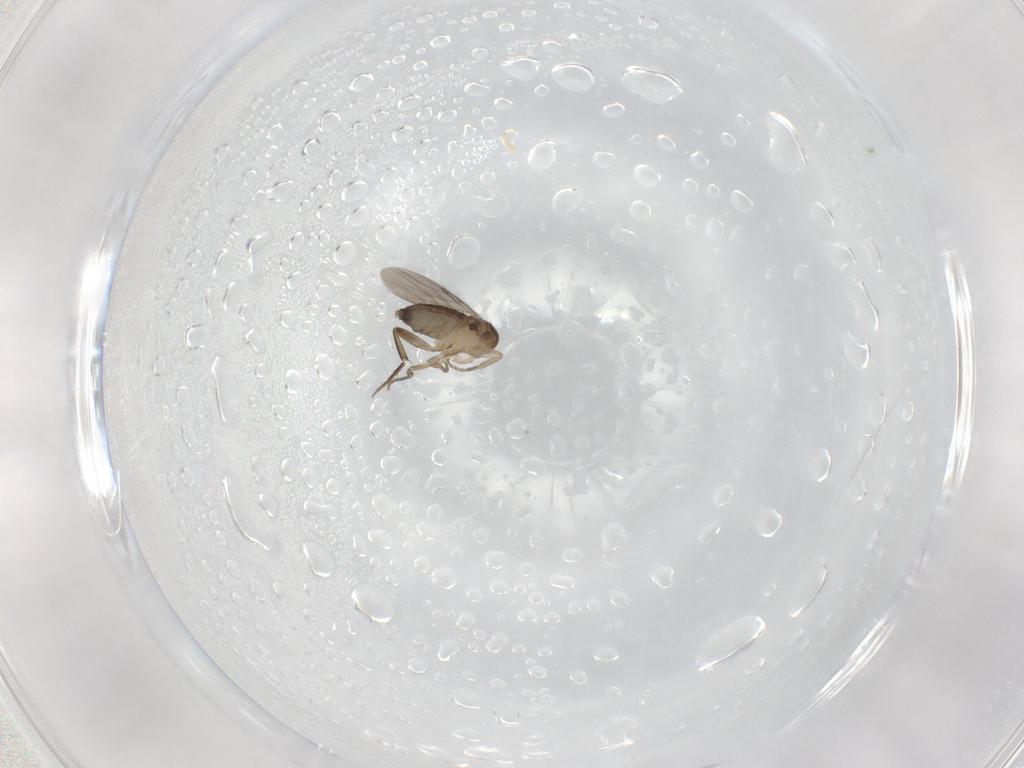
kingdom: Animalia
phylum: Arthropoda
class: Insecta
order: Diptera
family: Phoridae
